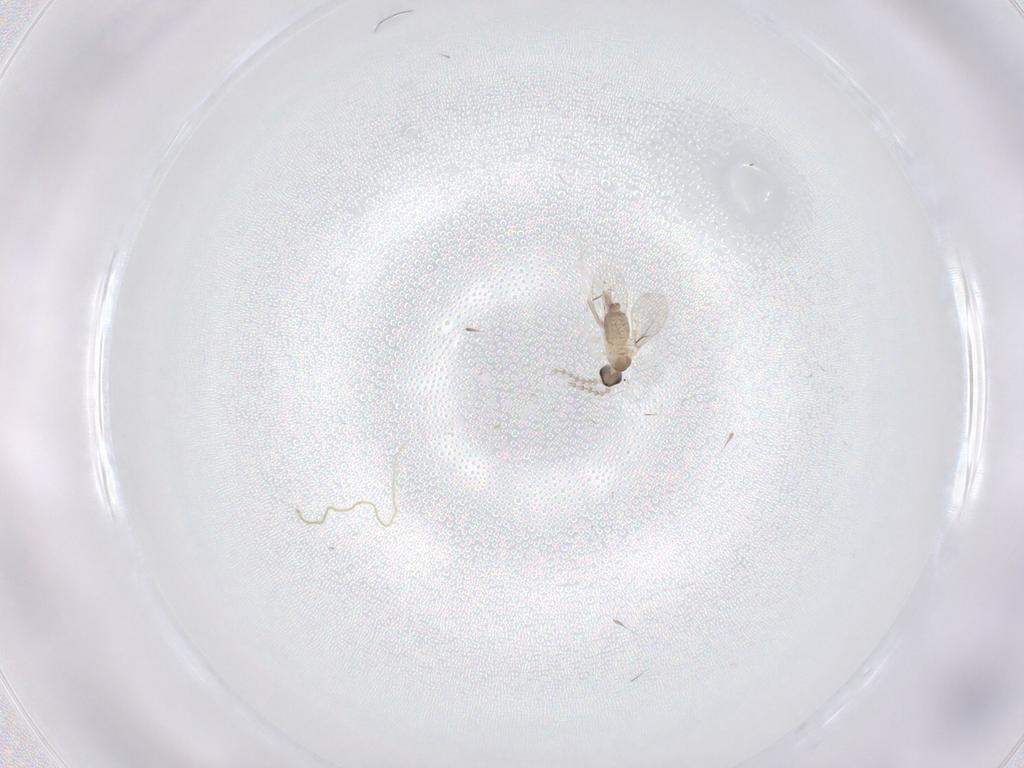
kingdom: Animalia
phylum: Arthropoda
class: Insecta
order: Diptera
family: Cecidomyiidae
